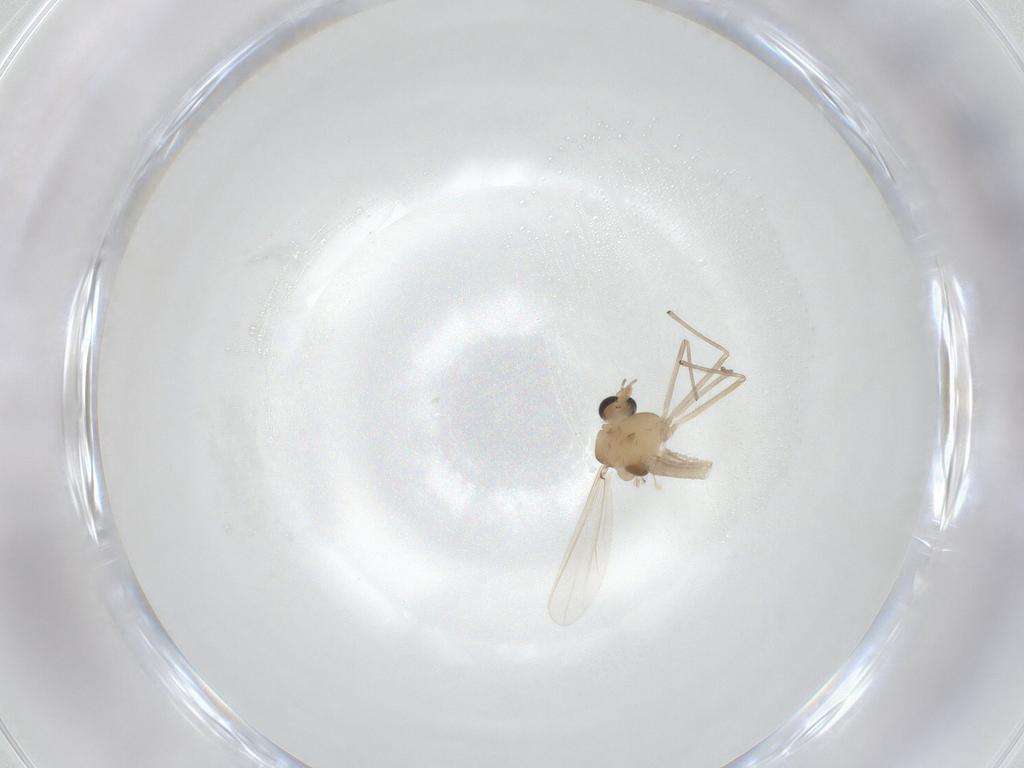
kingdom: Animalia
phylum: Arthropoda
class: Insecta
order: Diptera
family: Chironomidae
